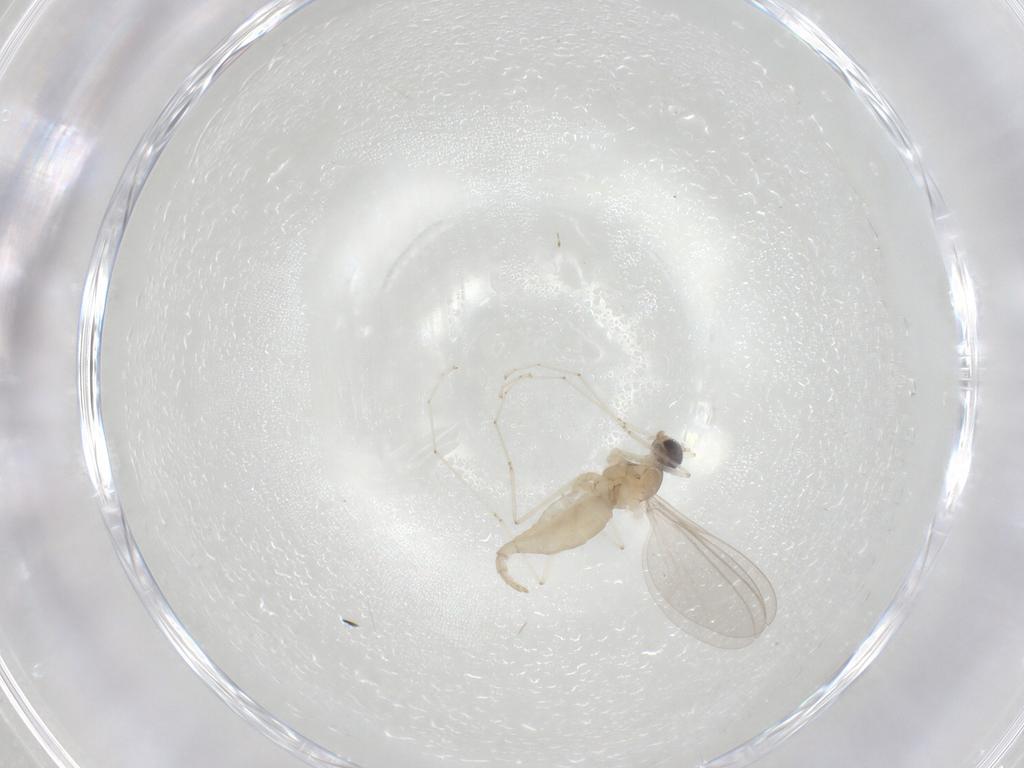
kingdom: Animalia
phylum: Arthropoda
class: Insecta
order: Diptera
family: Cecidomyiidae
